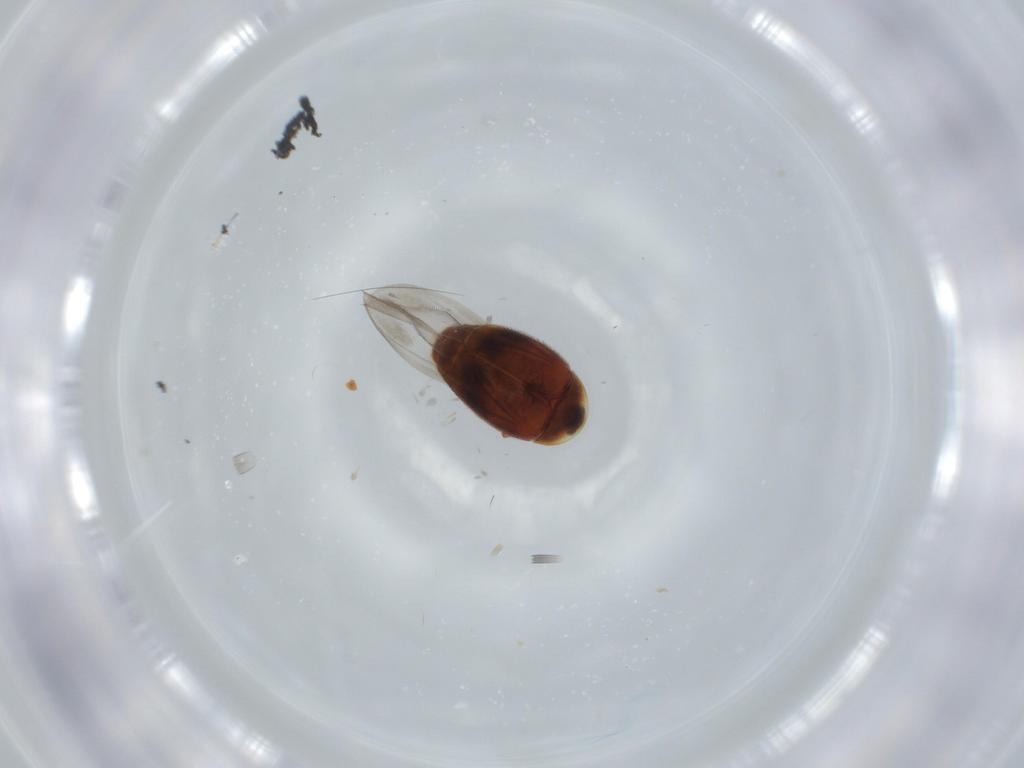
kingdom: Animalia
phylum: Arthropoda
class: Insecta
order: Coleoptera
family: Corylophidae
